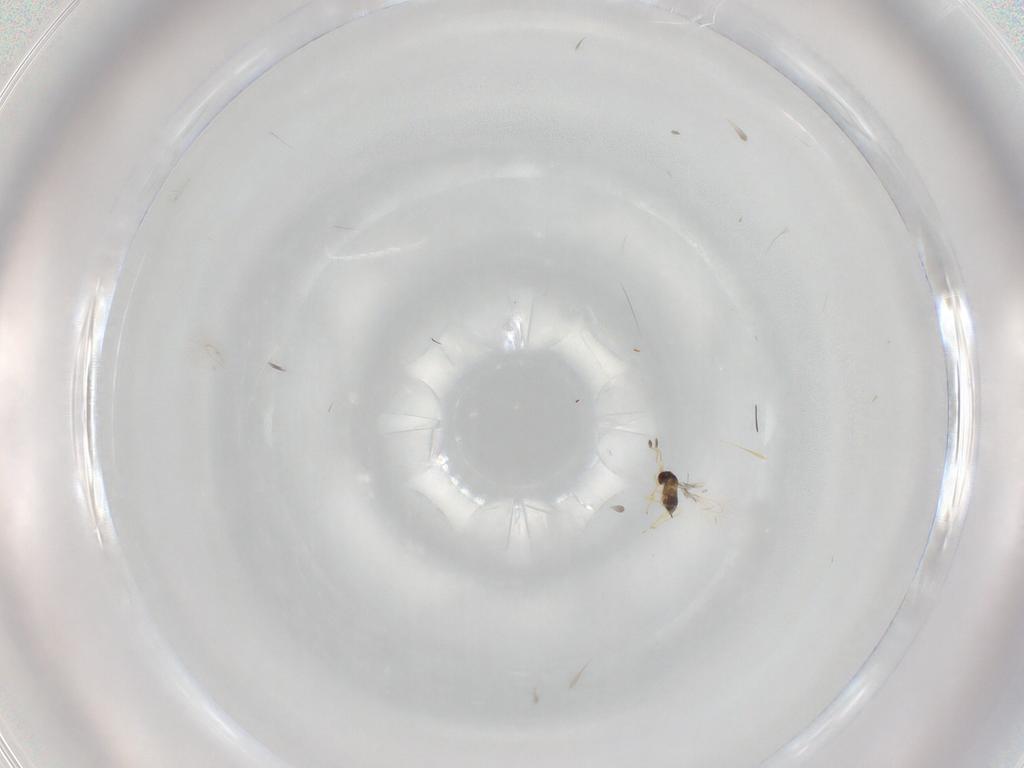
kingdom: Animalia
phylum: Arthropoda
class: Insecta
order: Hymenoptera
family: Mymaridae
